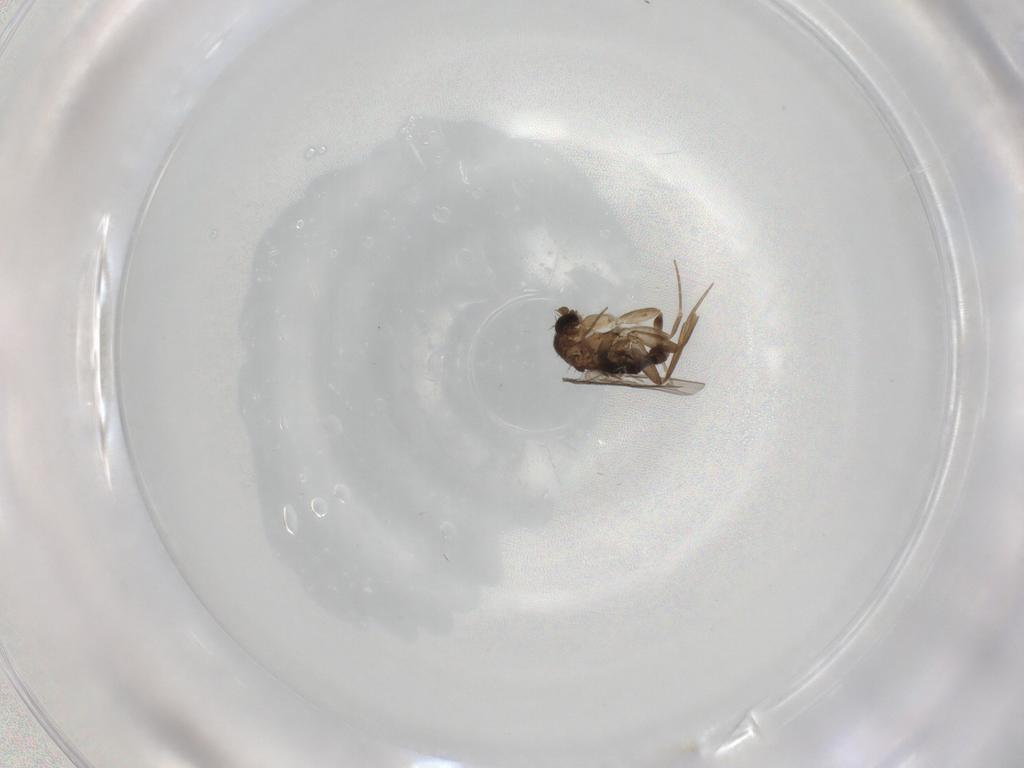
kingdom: Animalia
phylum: Arthropoda
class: Insecta
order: Diptera
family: Phoridae
